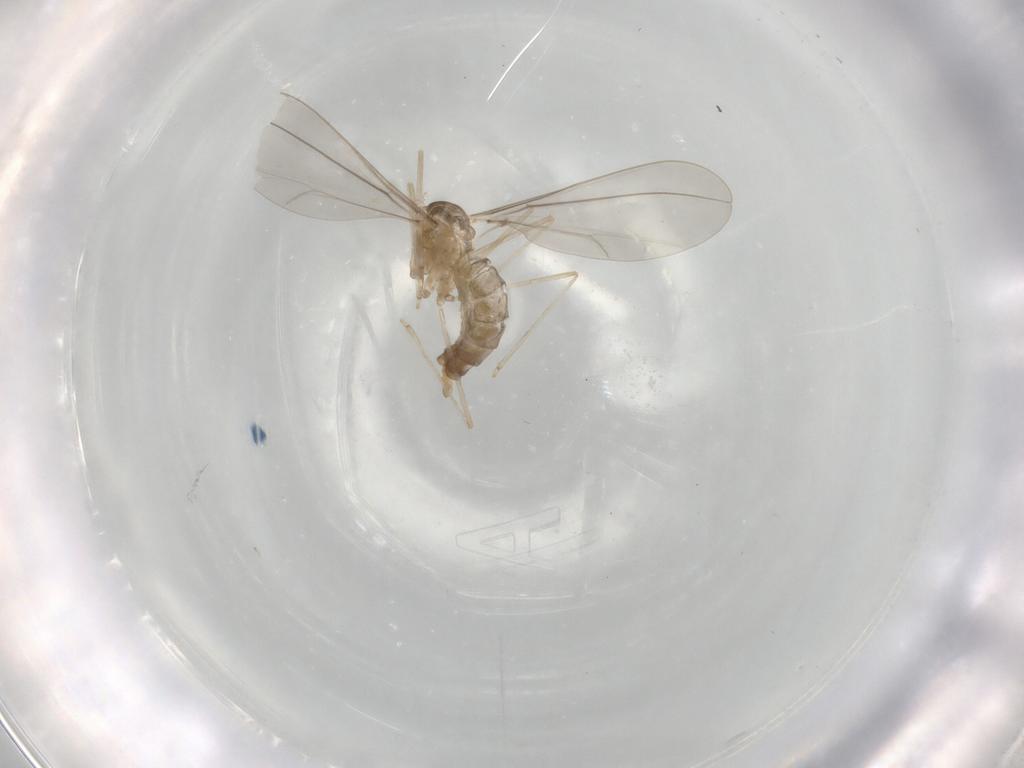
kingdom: Animalia
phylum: Arthropoda
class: Insecta
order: Diptera
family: Cecidomyiidae
